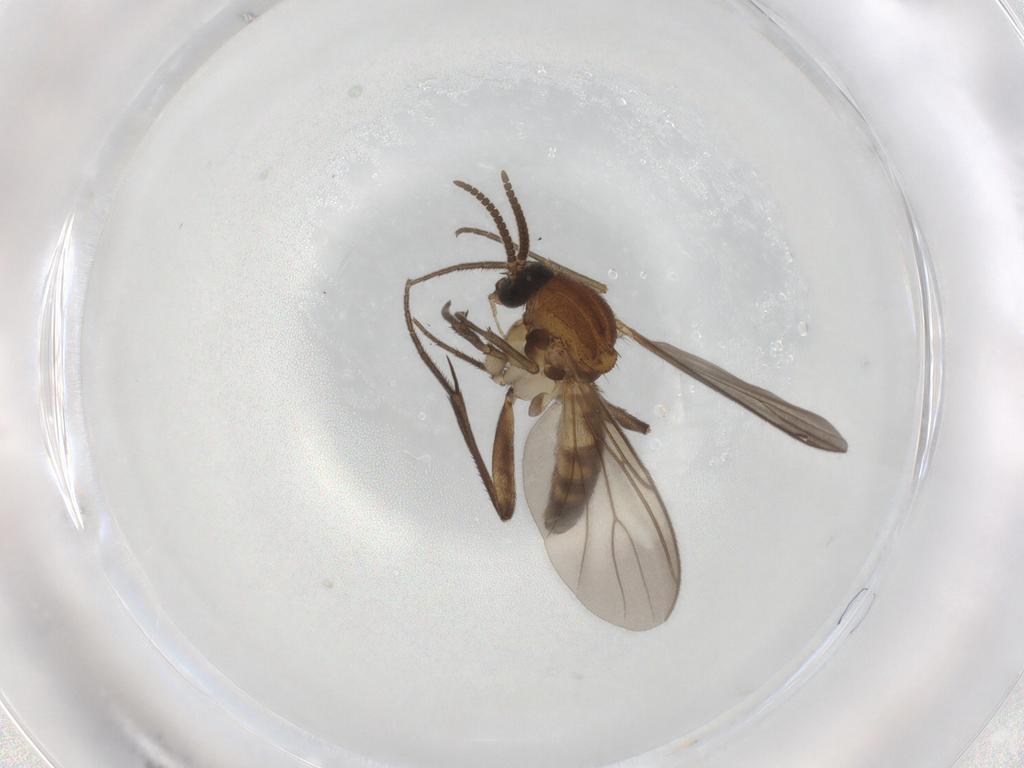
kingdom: Animalia
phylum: Arthropoda
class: Insecta
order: Diptera
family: Mycetophilidae
